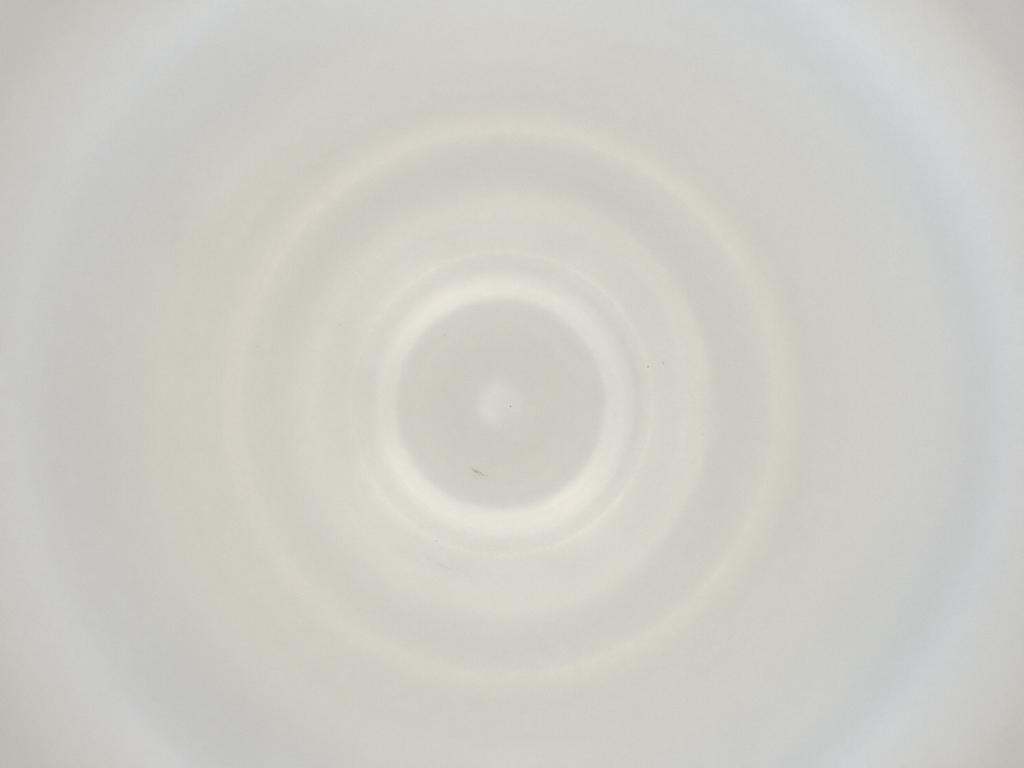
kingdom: Animalia
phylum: Arthropoda
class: Insecta
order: Diptera
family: Cecidomyiidae
